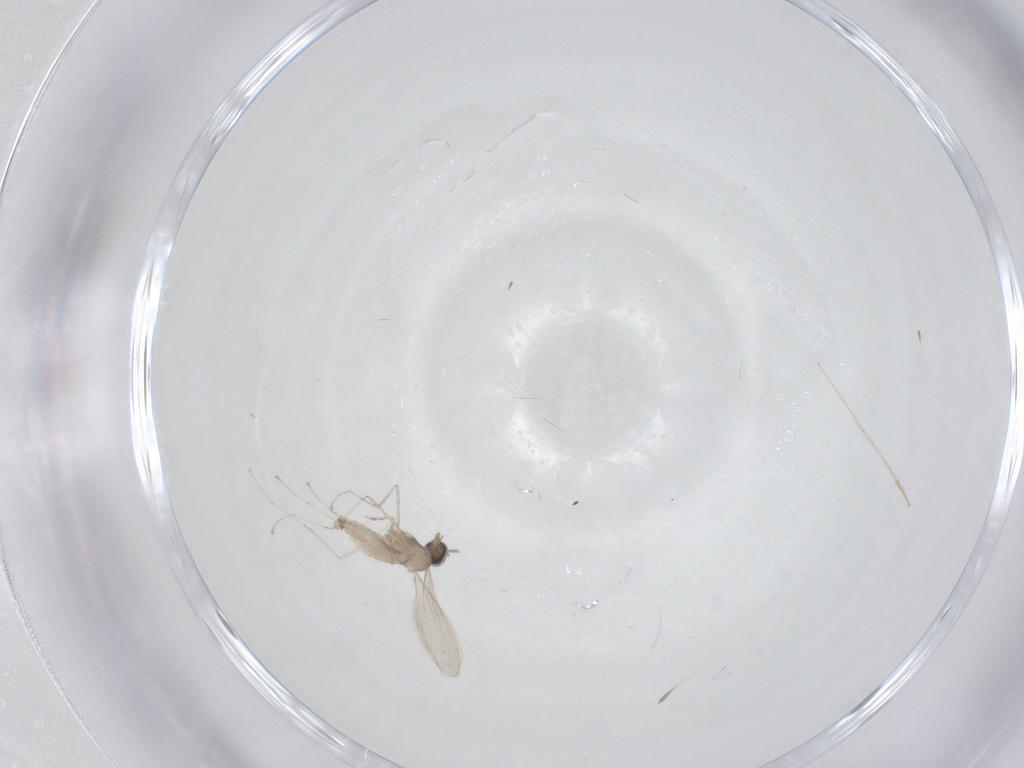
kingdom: Animalia
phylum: Arthropoda
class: Insecta
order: Diptera
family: Chironomidae
